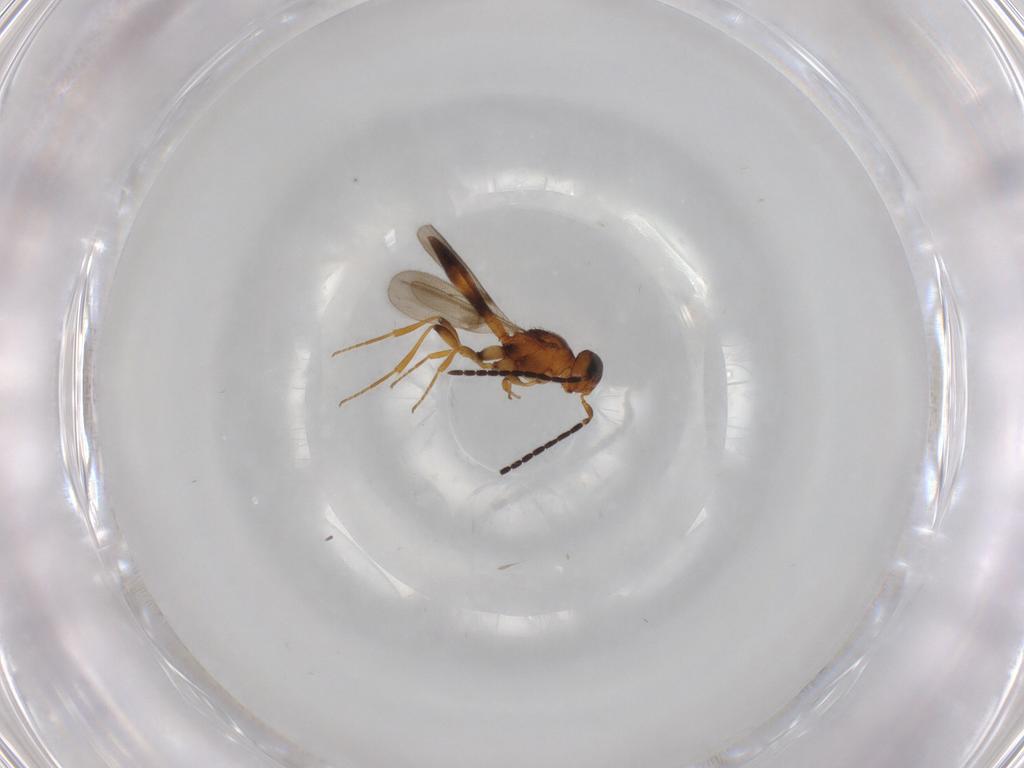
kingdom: Animalia
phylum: Arthropoda
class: Insecta
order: Hymenoptera
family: Scelionidae
